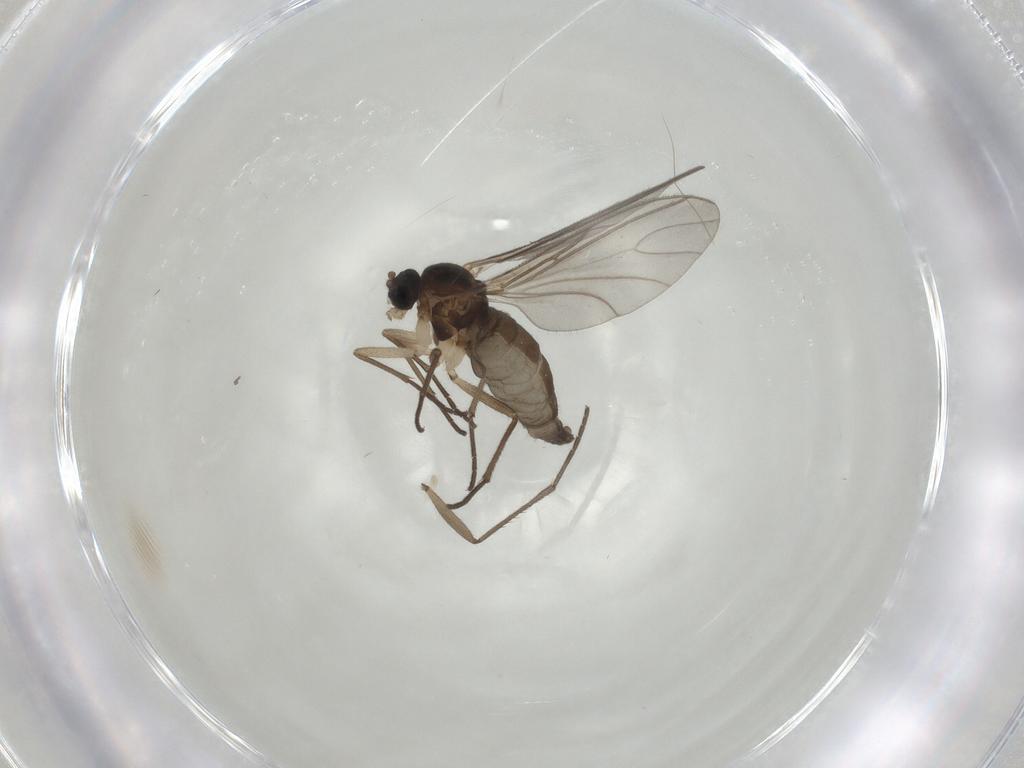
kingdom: Animalia
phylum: Arthropoda
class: Insecta
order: Diptera
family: Sciaridae
